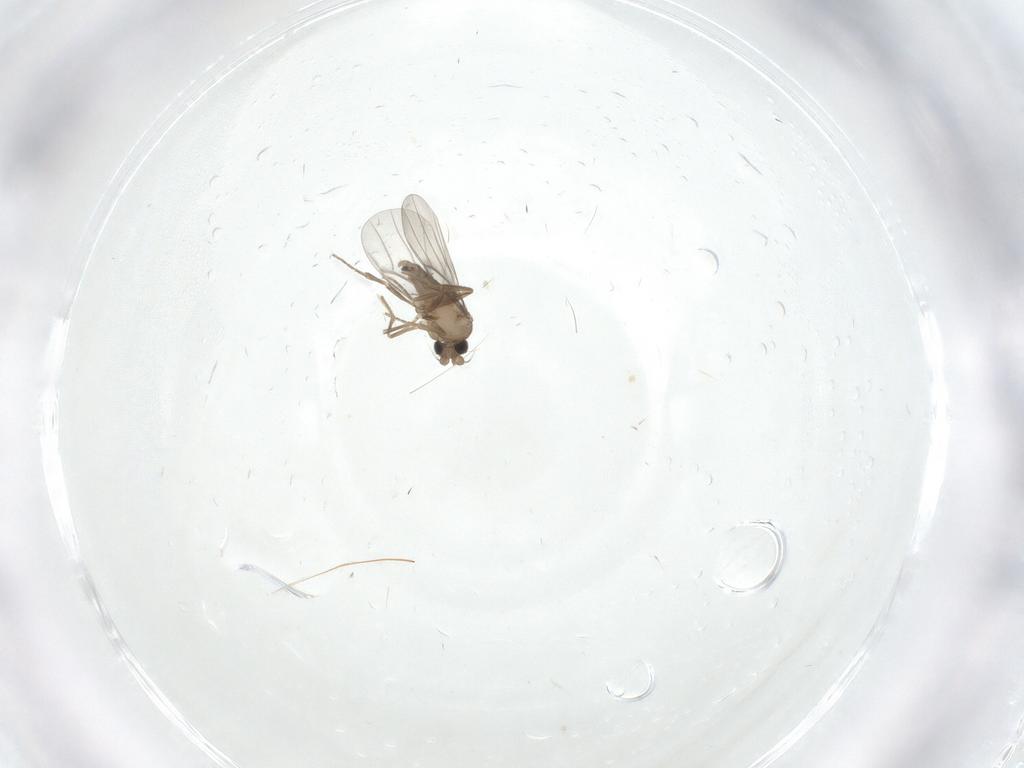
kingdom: Animalia
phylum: Arthropoda
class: Insecta
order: Diptera
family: Cecidomyiidae
